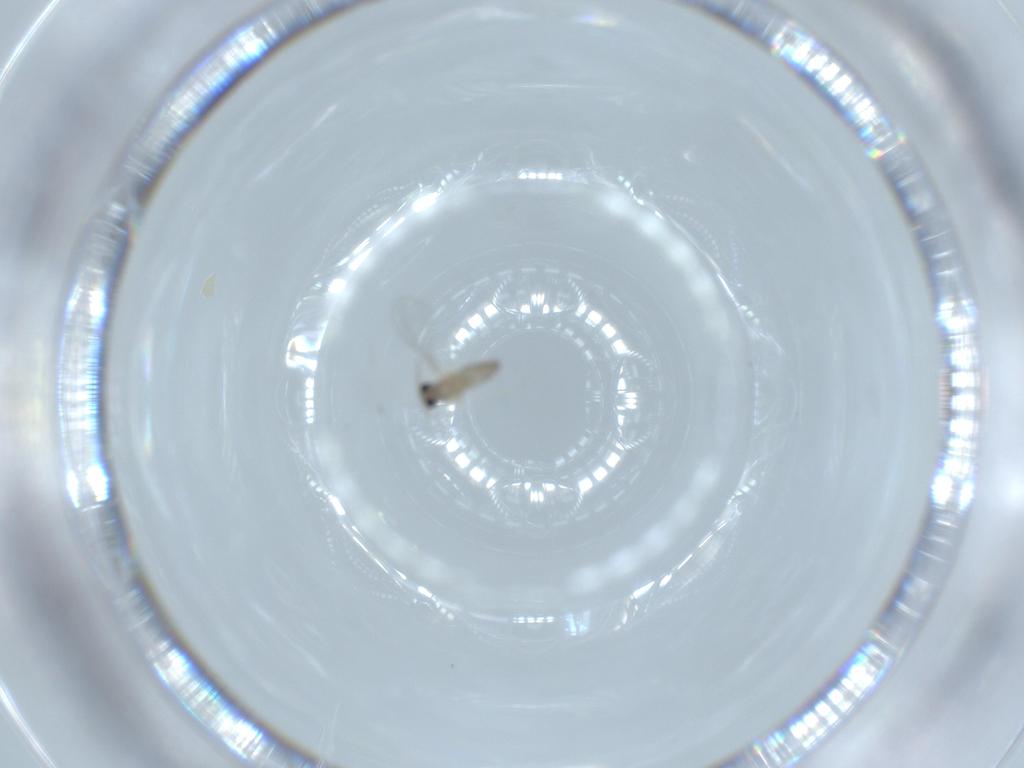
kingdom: Animalia
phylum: Arthropoda
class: Insecta
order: Diptera
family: Cecidomyiidae
